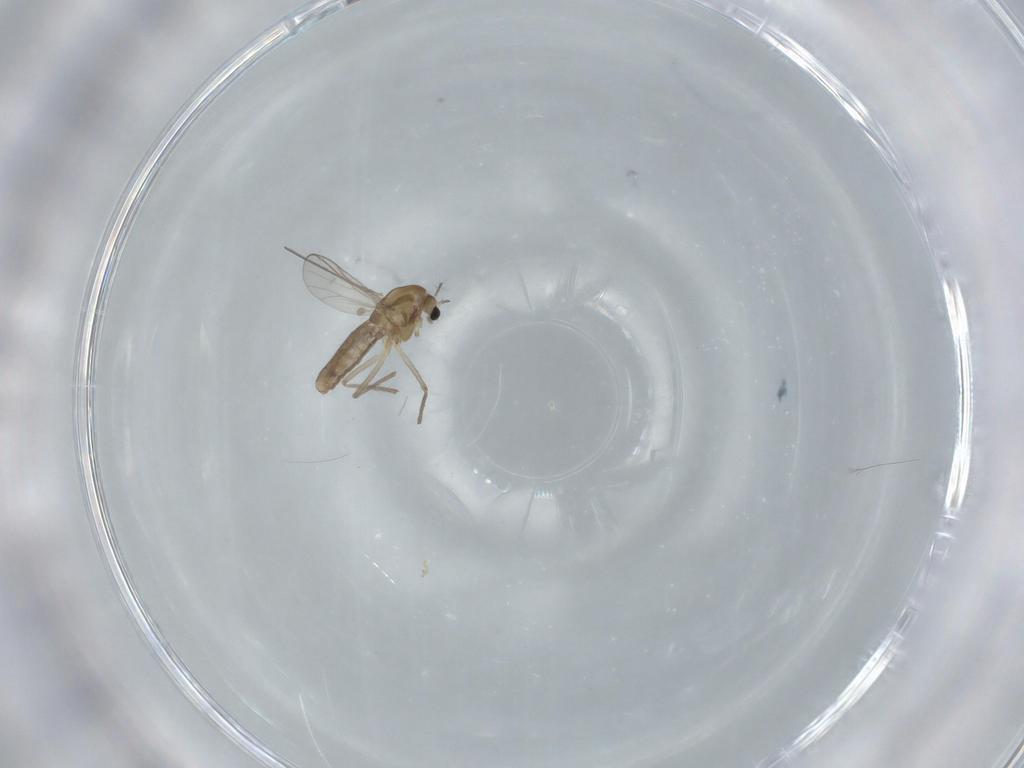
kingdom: Animalia
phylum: Arthropoda
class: Insecta
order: Diptera
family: Chironomidae
